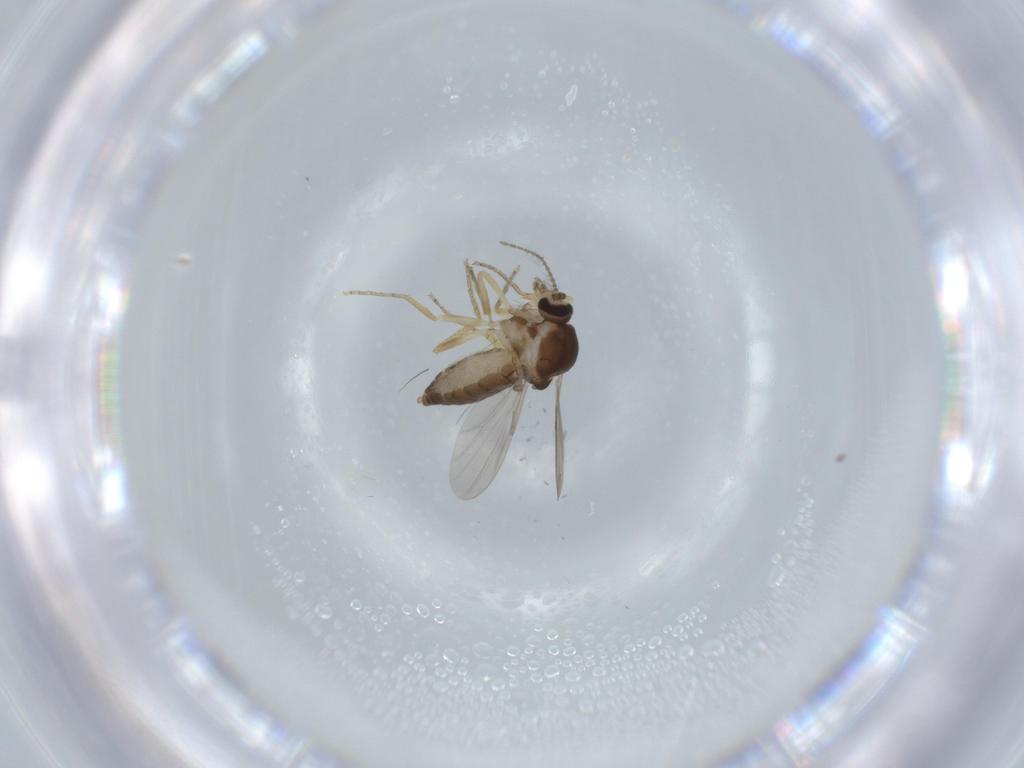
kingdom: Animalia
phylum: Arthropoda
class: Insecta
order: Diptera
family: Ceratopogonidae
